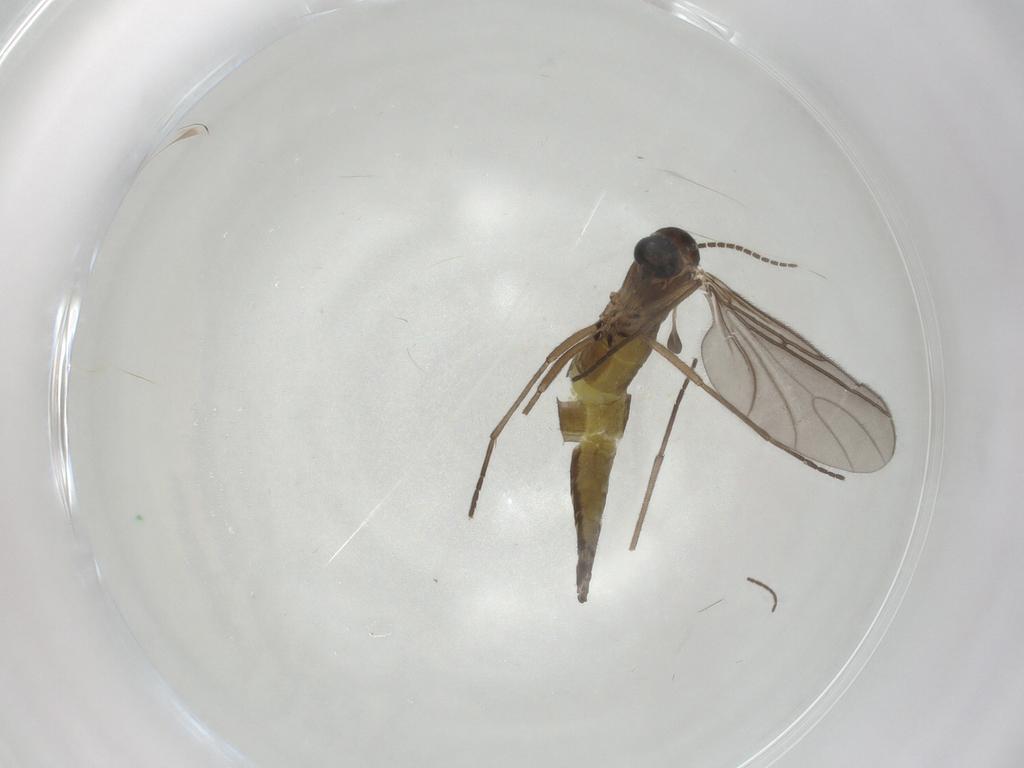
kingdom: Animalia
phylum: Arthropoda
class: Insecta
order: Diptera
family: Sciaridae
